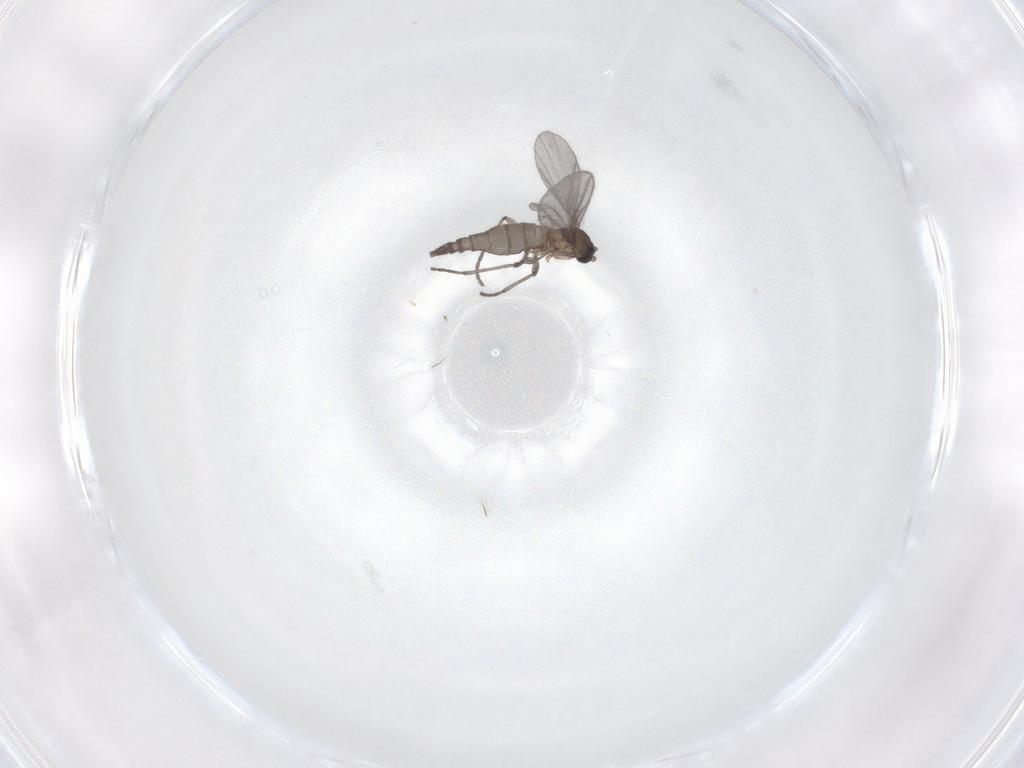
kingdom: Animalia
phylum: Arthropoda
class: Insecta
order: Diptera
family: Sciaridae
